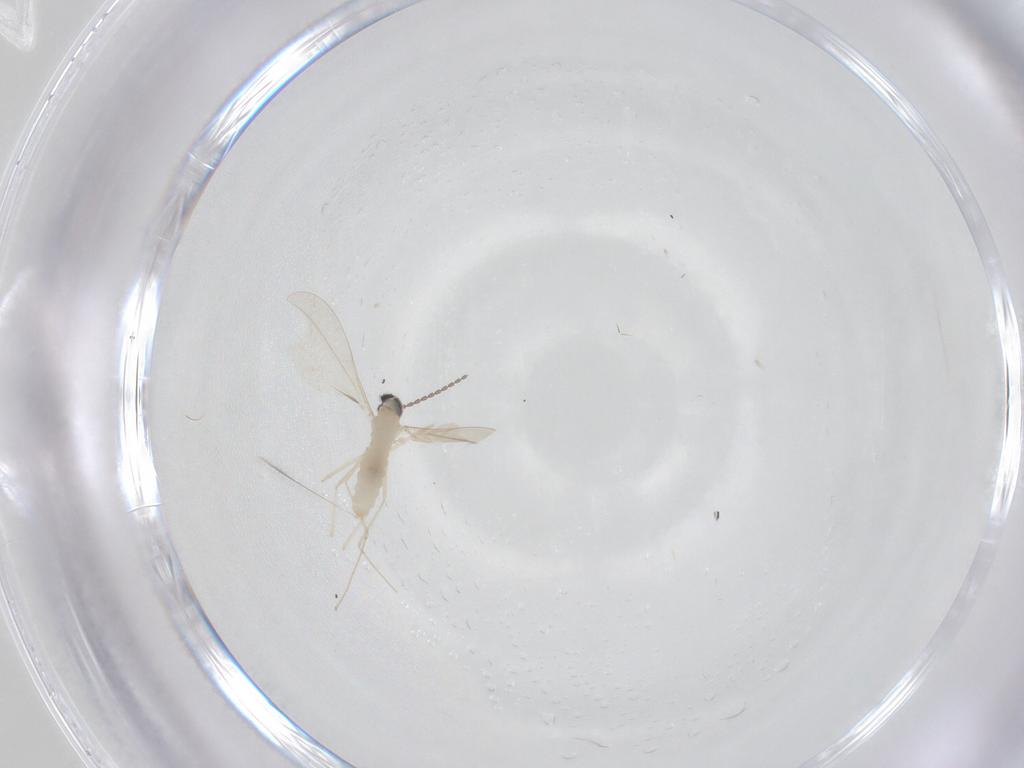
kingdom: Animalia
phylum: Arthropoda
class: Insecta
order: Diptera
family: Cecidomyiidae
